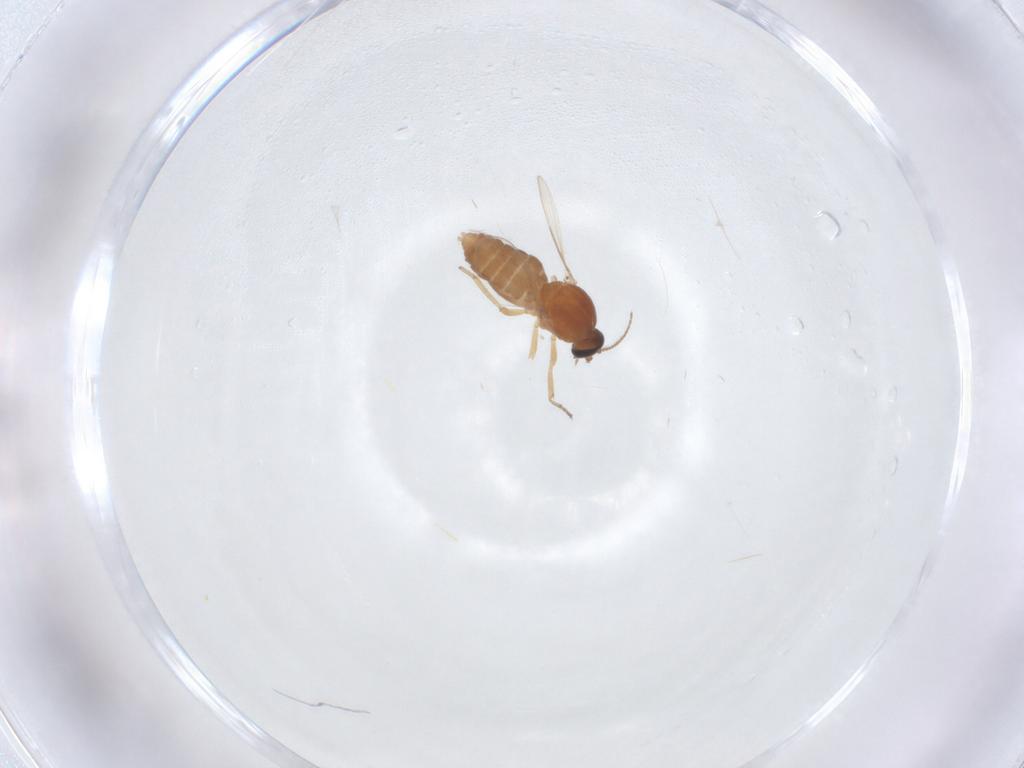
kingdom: Animalia
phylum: Arthropoda
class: Insecta
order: Diptera
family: Ceratopogonidae
